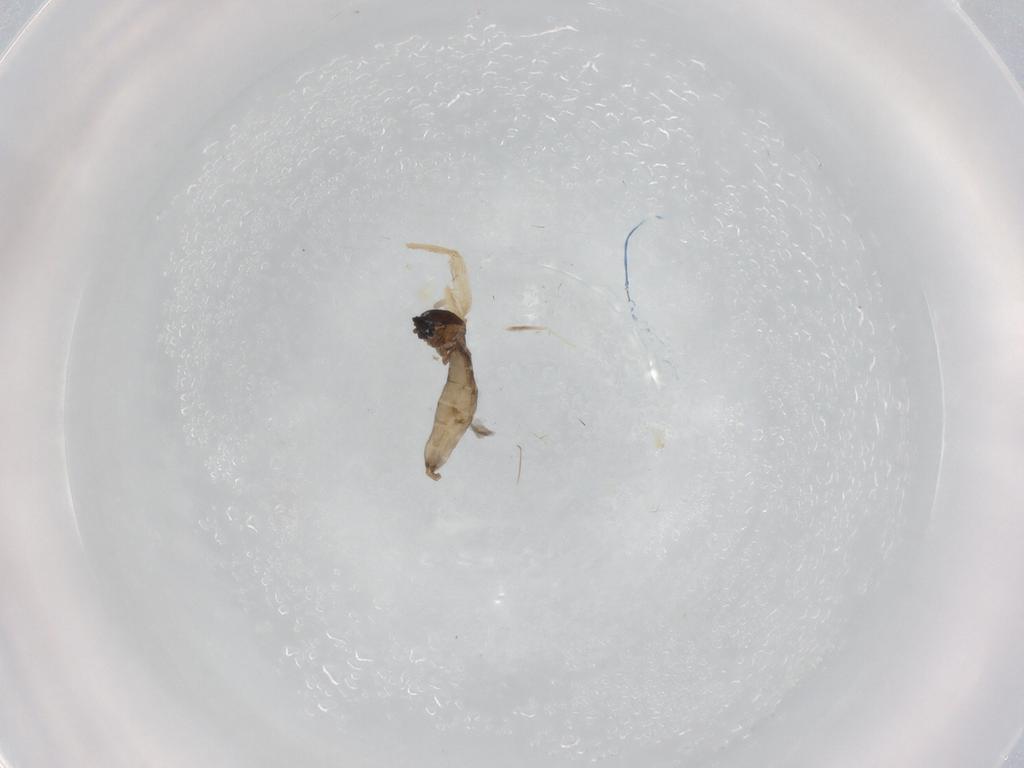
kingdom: Animalia
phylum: Arthropoda
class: Insecta
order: Diptera
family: Cecidomyiidae
